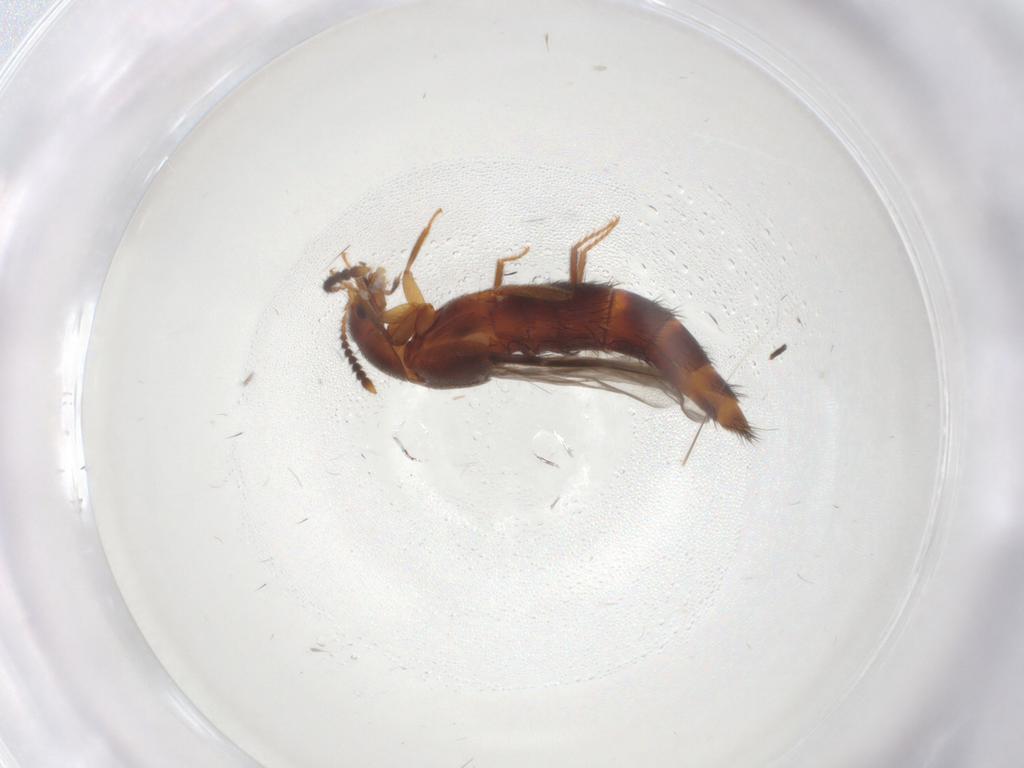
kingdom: Animalia
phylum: Arthropoda
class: Insecta
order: Coleoptera
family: Oedemeridae
